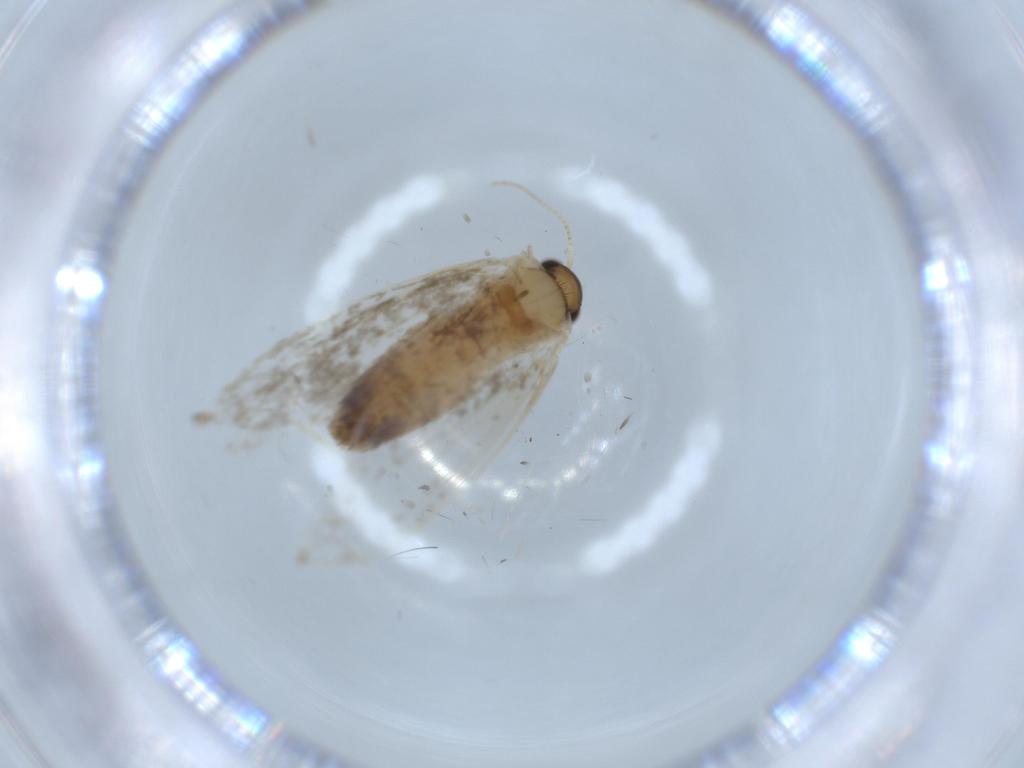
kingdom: Animalia
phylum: Arthropoda
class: Insecta
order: Lepidoptera
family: Tineidae
